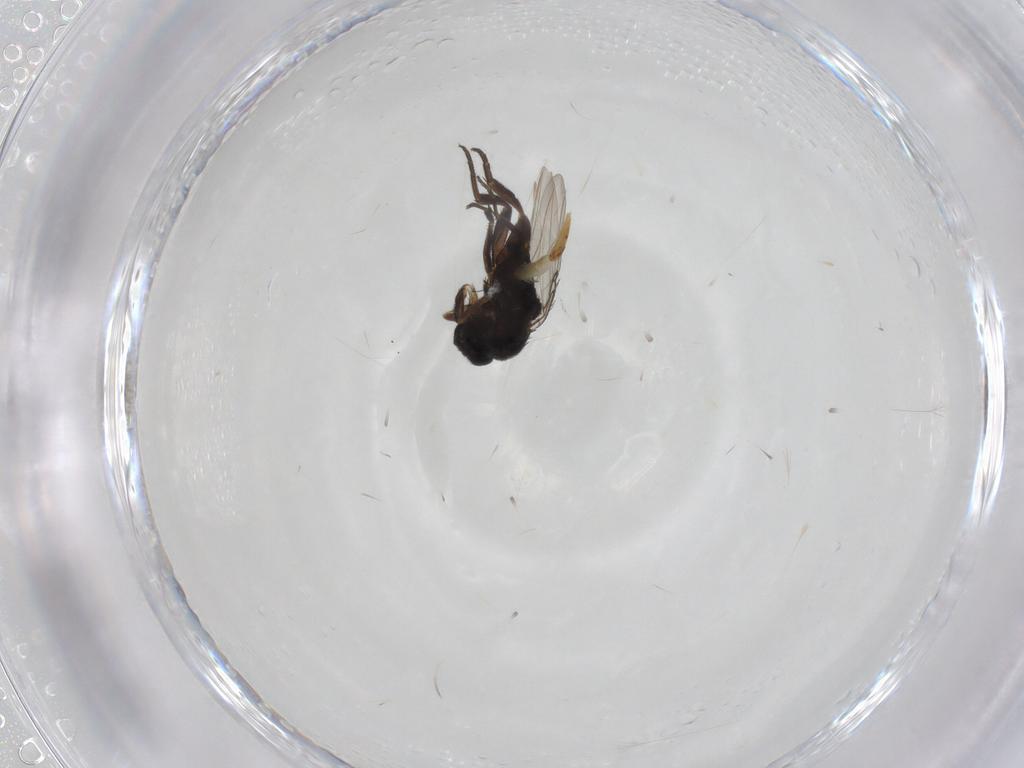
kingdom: Animalia
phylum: Arthropoda
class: Insecta
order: Diptera
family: Phoridae
